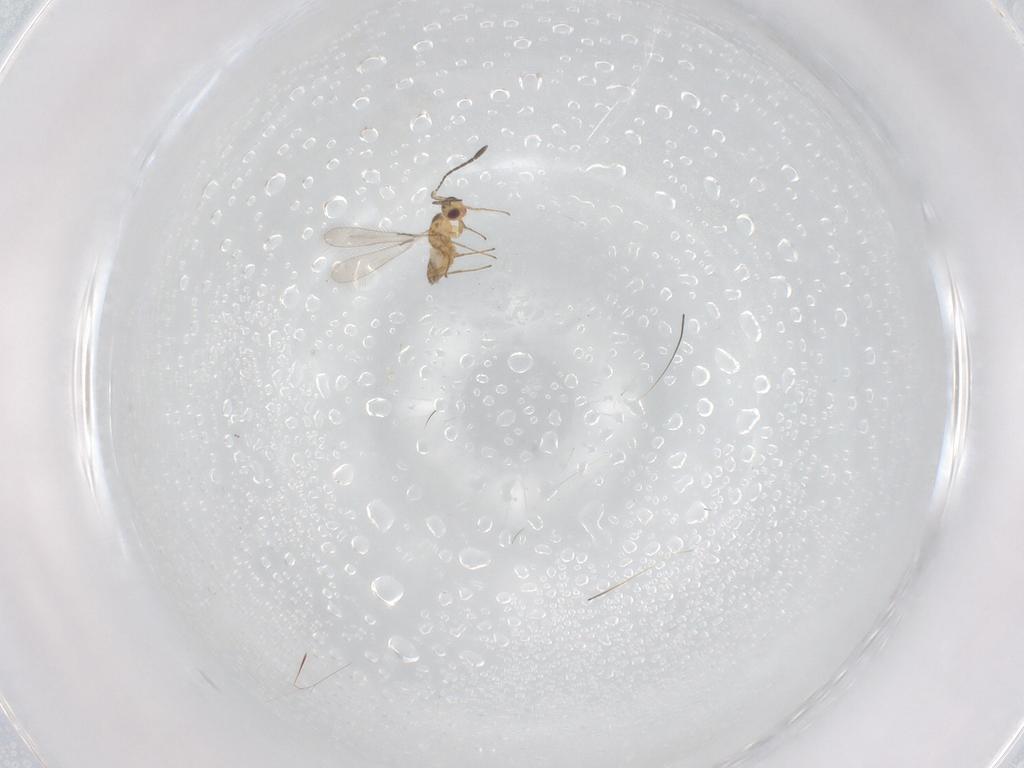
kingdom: Animalia
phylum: Arthropoda
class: Insecta
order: Hymenoptera
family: Mymaridae
